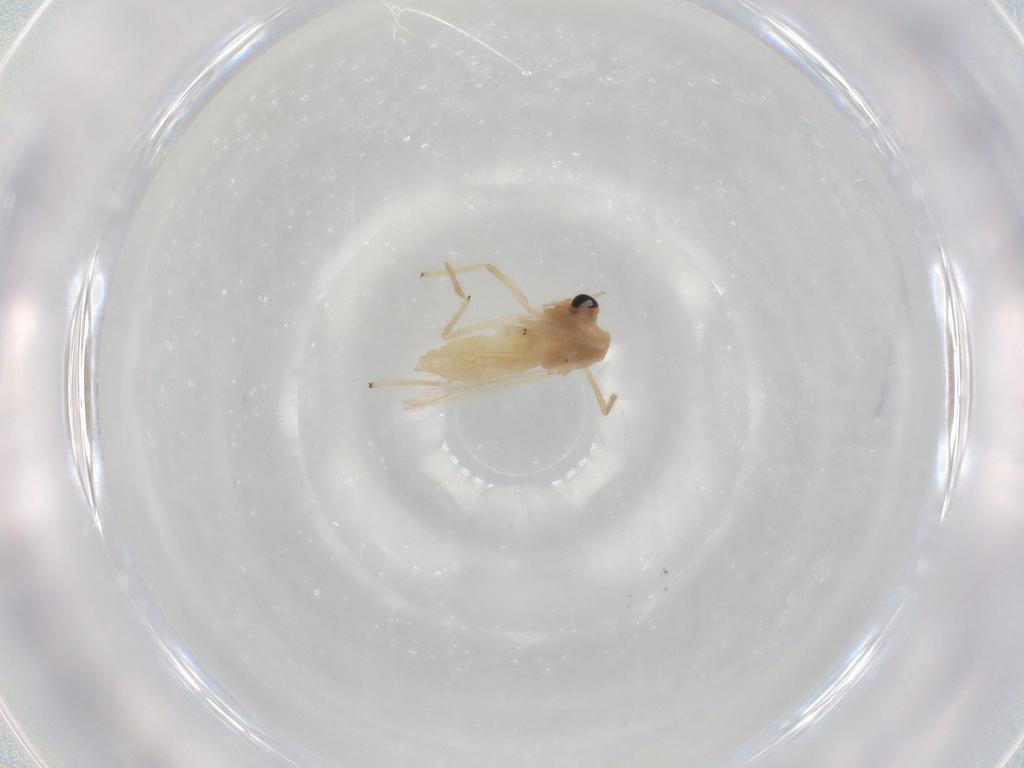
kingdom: Animalia
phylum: Arthropoda
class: Insecta
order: Diptera
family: Chironomidae
